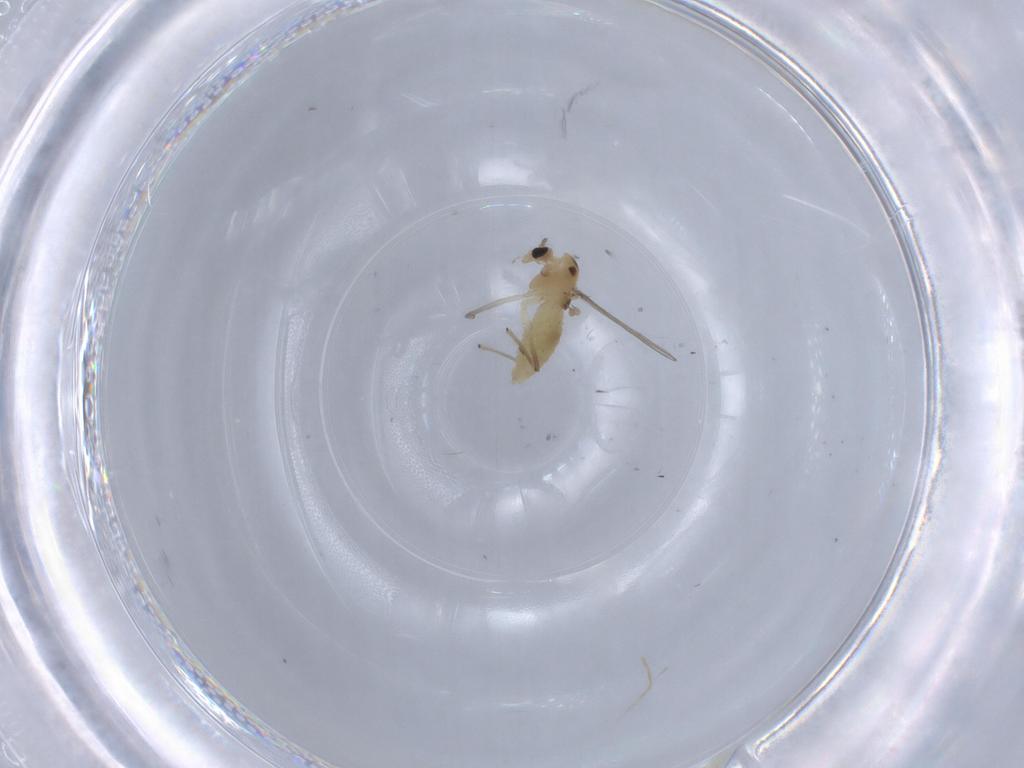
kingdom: Animalia
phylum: Arthropoda
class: Insecta
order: Diptera
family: Chironomidae
